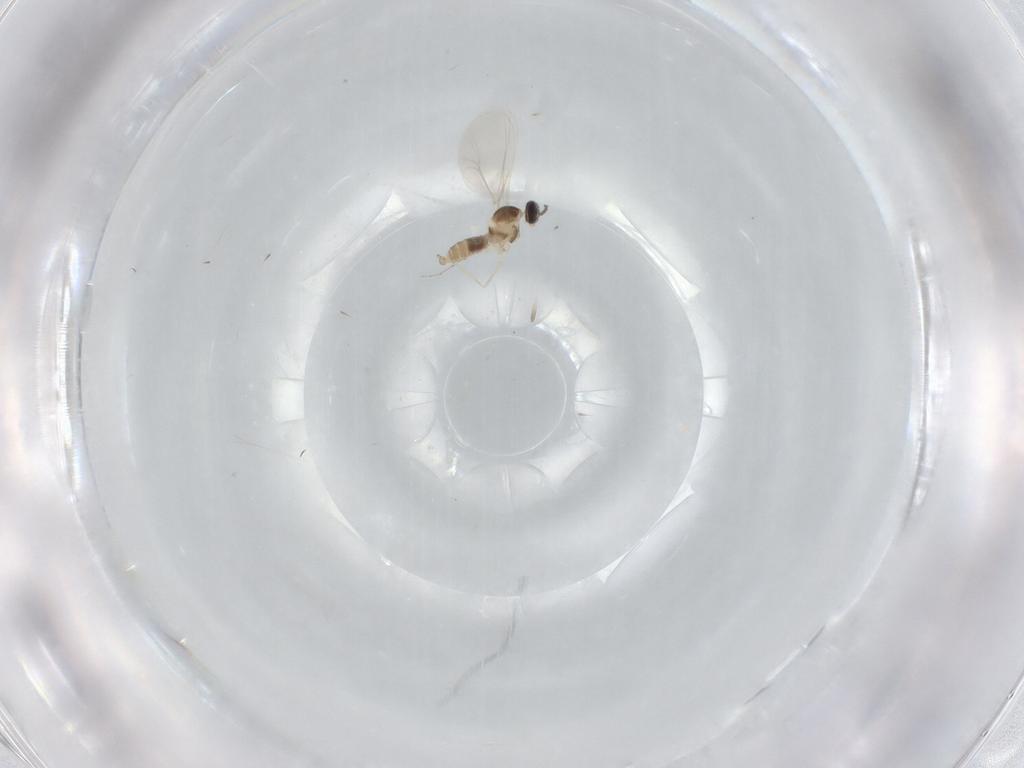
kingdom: Animalia
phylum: Arthropoda
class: Insecta
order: Diptera
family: Cecidomyiidae
